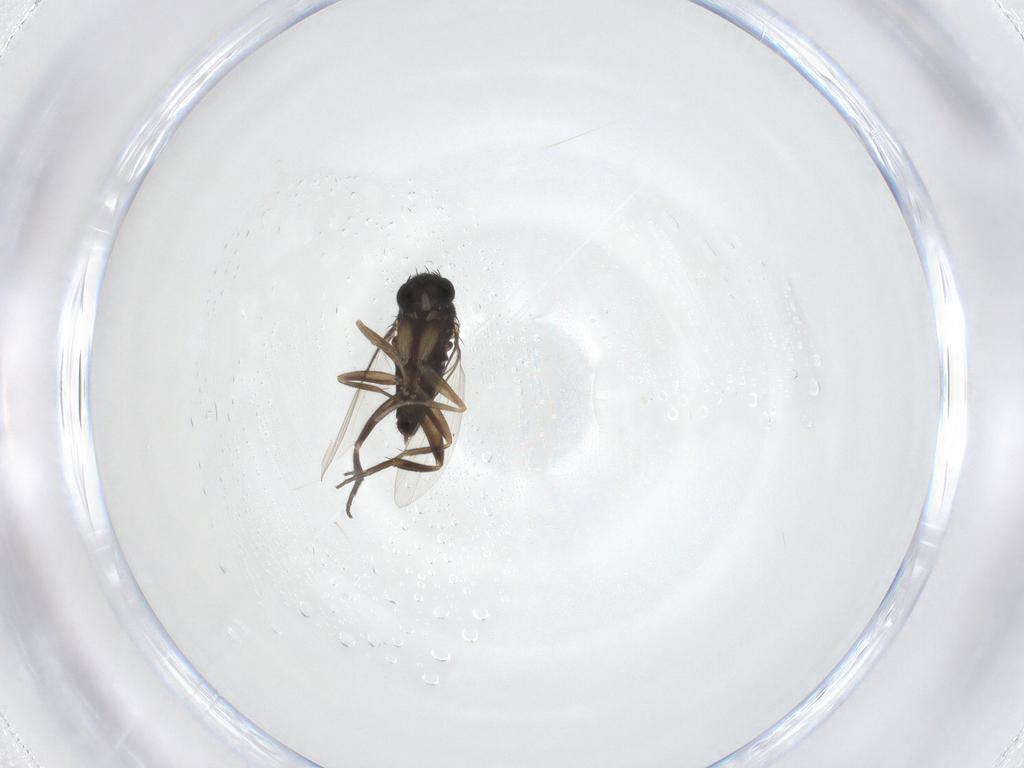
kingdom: Animalia
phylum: Arthropoda
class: Insecta
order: Diptera
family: Phoridae
